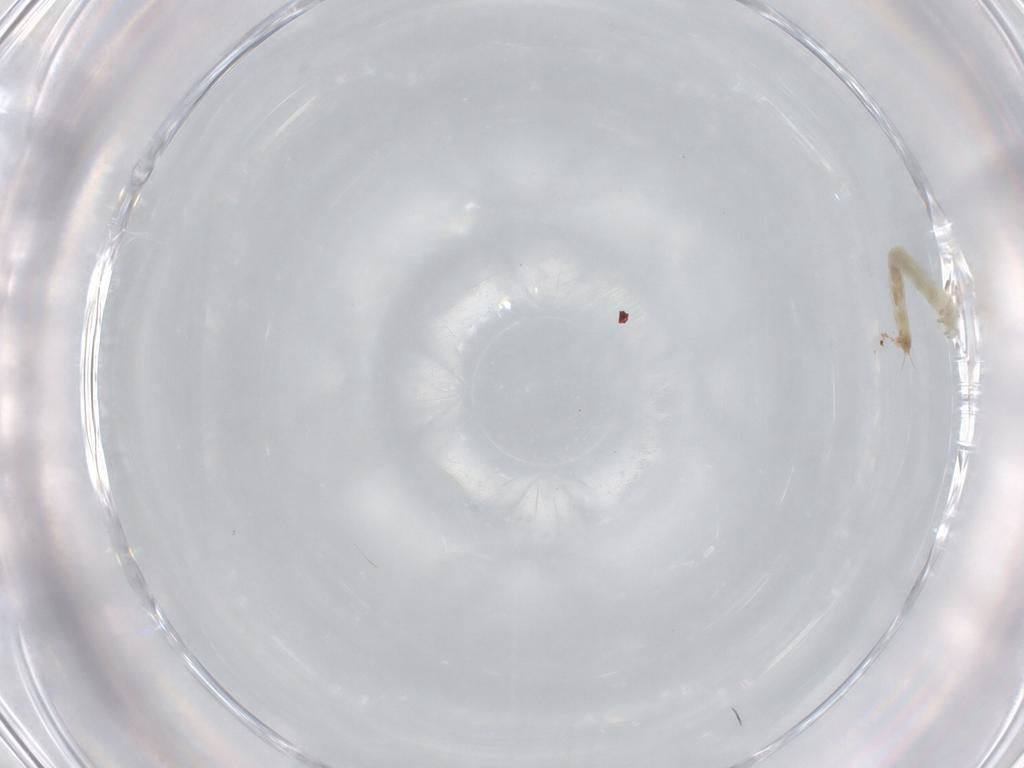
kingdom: Animalia
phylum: Arthropoda
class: Insecta
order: Diptera
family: Chironomidae
